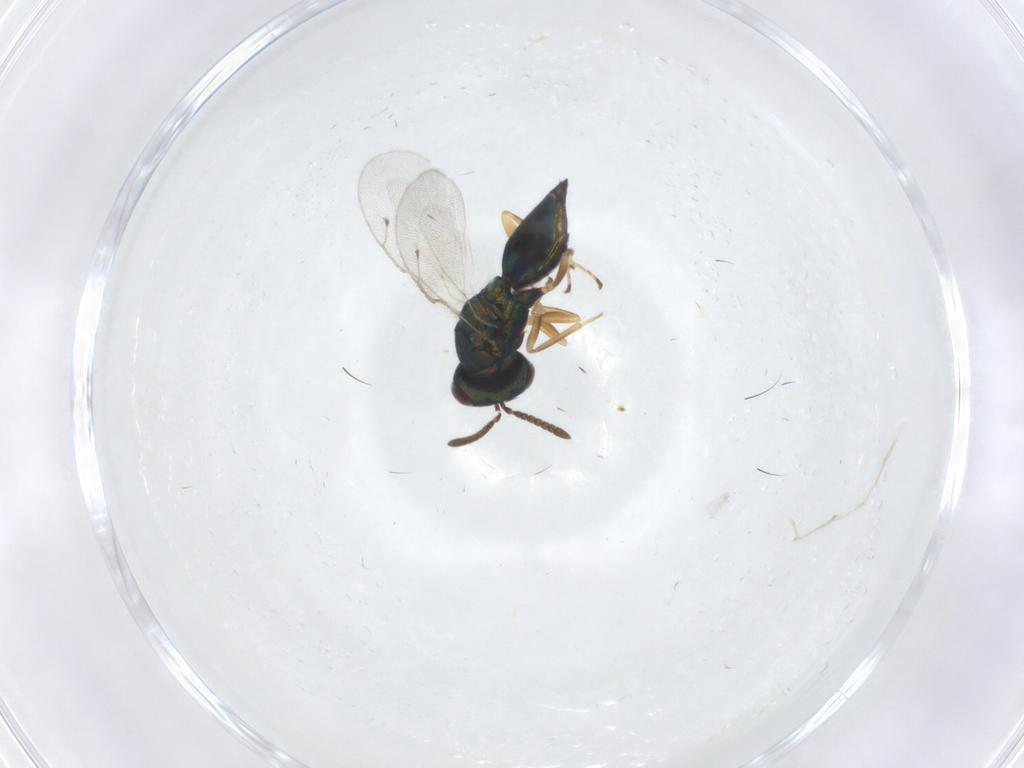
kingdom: Animalia
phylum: Arthropoda
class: Insecta
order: Hymenoptera
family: Pteromalidae
